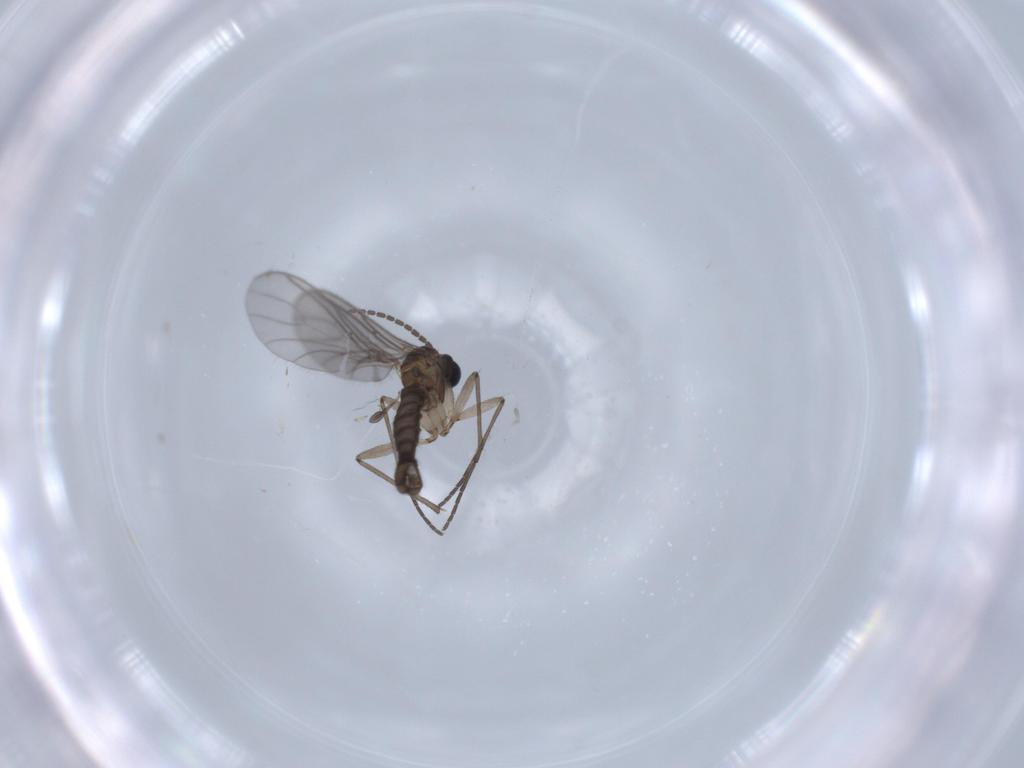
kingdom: Animalia
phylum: Arthropoda
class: Insecta
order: Diptera
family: Sciaridae
